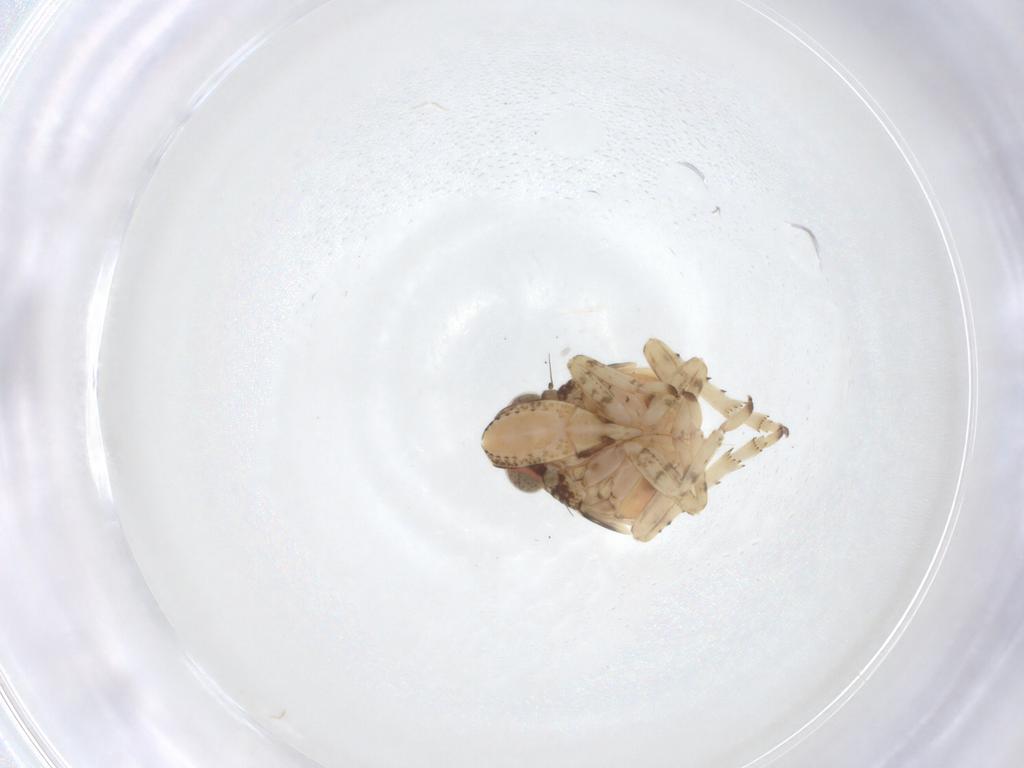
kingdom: Animalia
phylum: Arthropoda
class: Insecta
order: Hemiptera
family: Tropiduchidae
